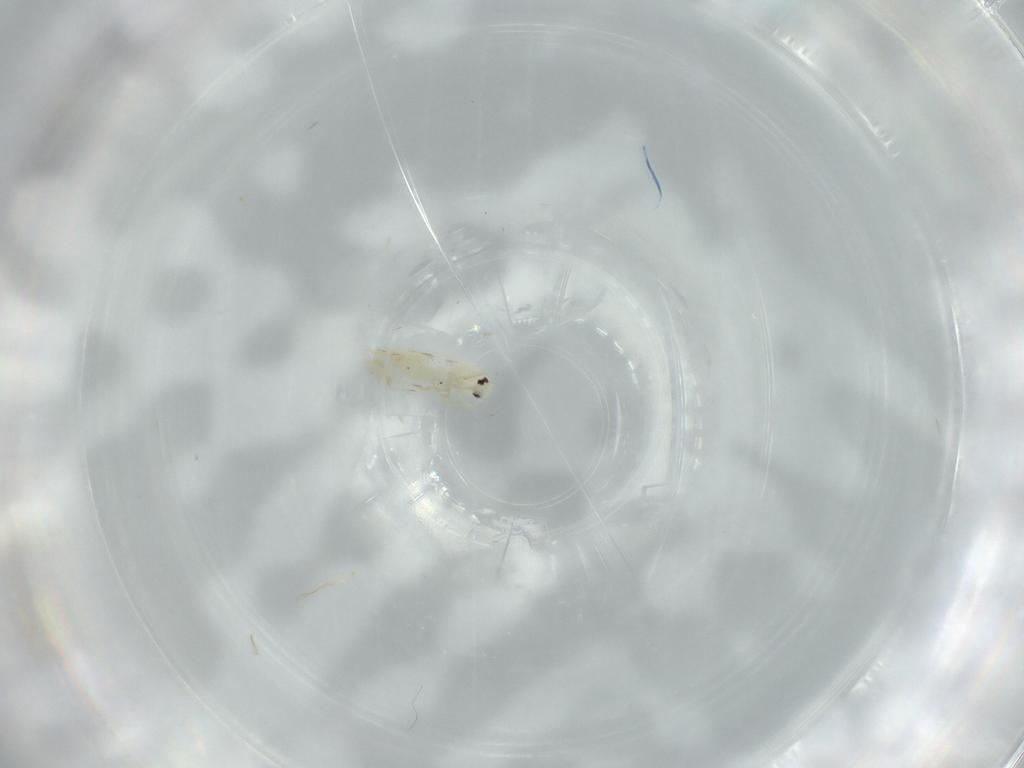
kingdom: Animalia
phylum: Arthropoda
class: Insecta
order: Hemiptera
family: Aleyrodidae
